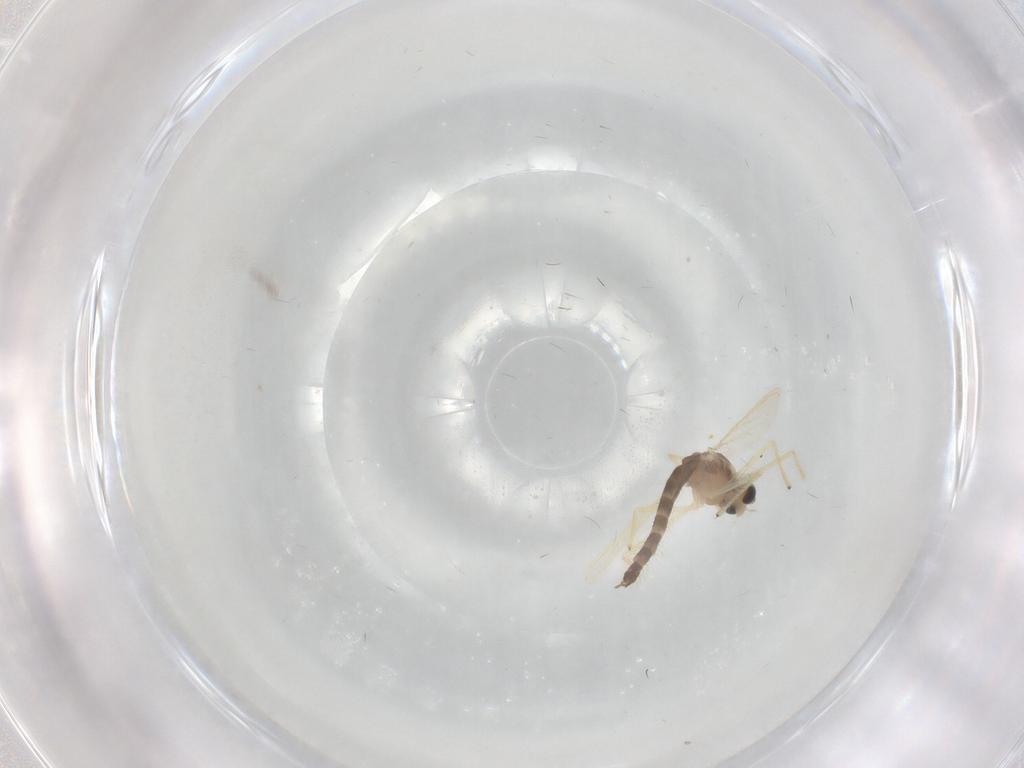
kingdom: Animalia
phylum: Arthropoda
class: Insecta
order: Diptera
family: Chironomidae
